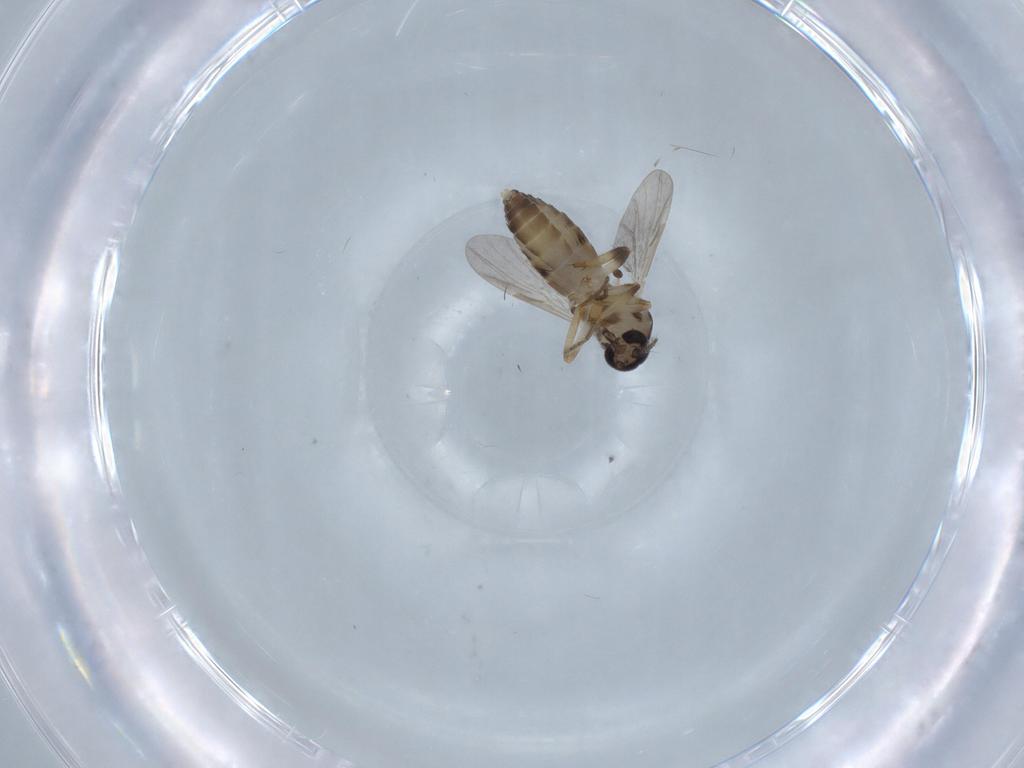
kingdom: Animalia
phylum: Arthropoda
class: Insecta
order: Diptera
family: Ceratopogonidae
